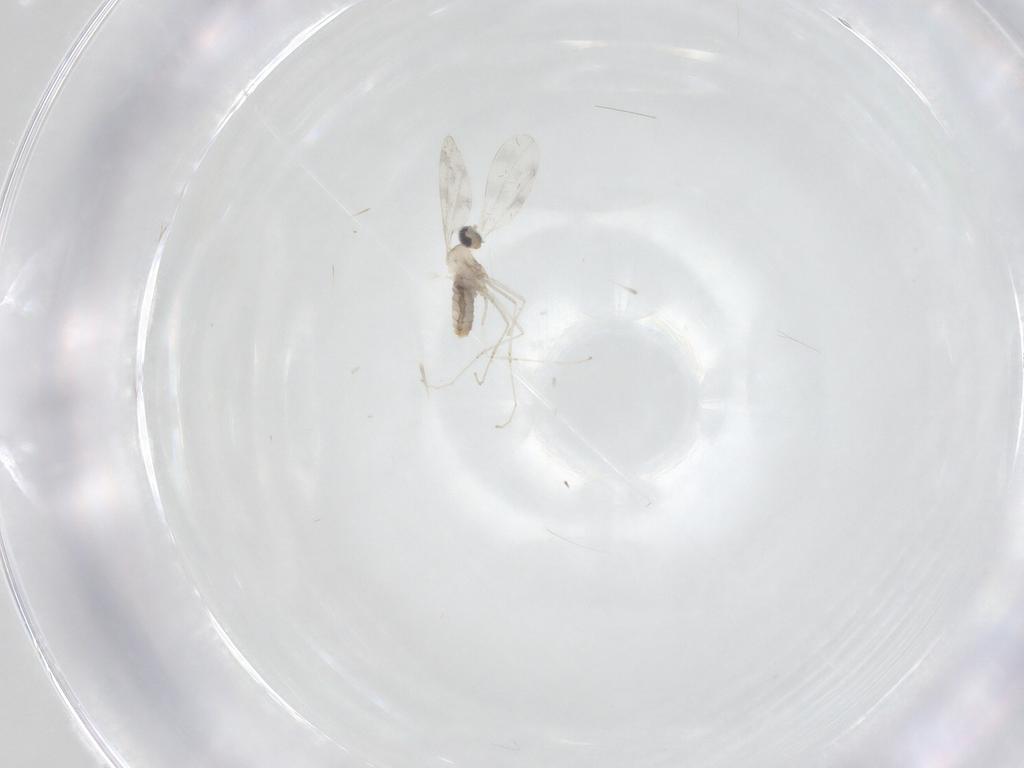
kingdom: Animalia
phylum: Arthropoda
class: Insecta
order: Diptera
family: Cecidomyiidae
